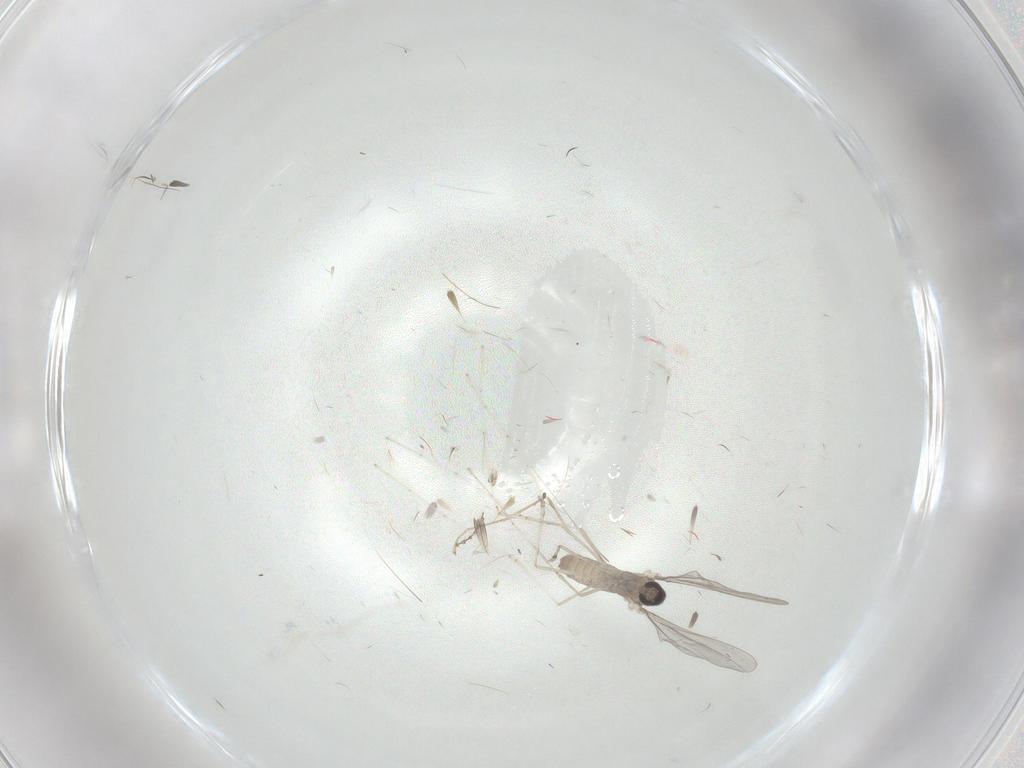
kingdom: Animalia
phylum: Arthropoda
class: Insecta
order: Diptera
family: Cecidomyiidae
